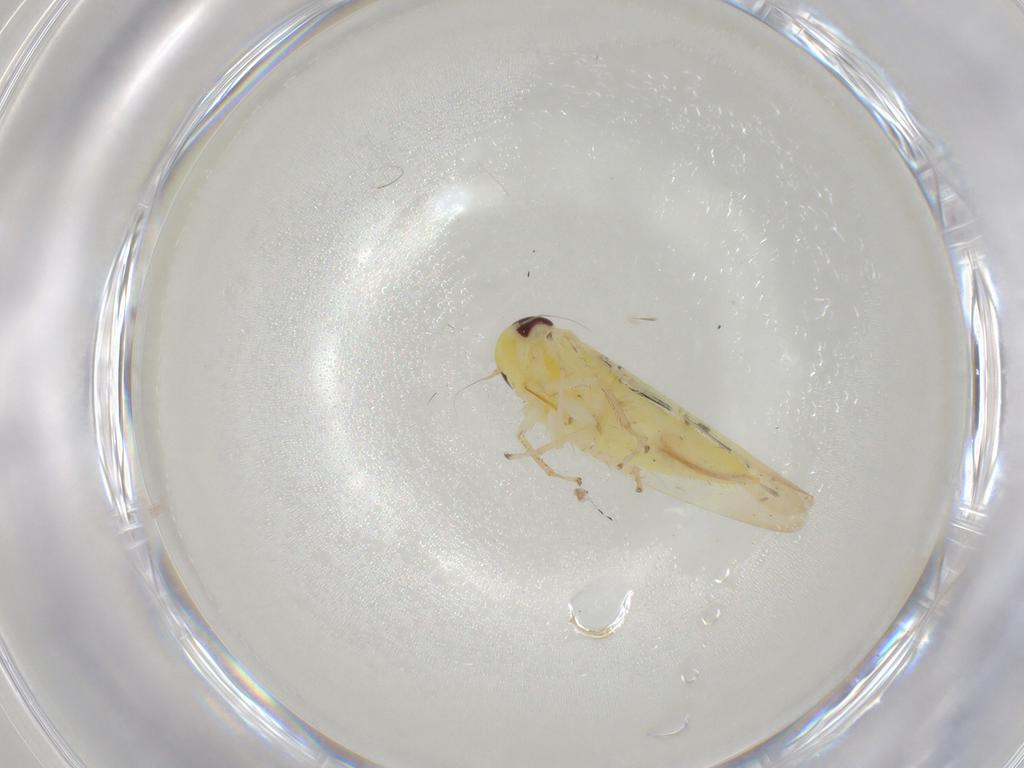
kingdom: Animalia
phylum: Arthropoda
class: Insecta
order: Hemiptera
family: Cicadellidae
